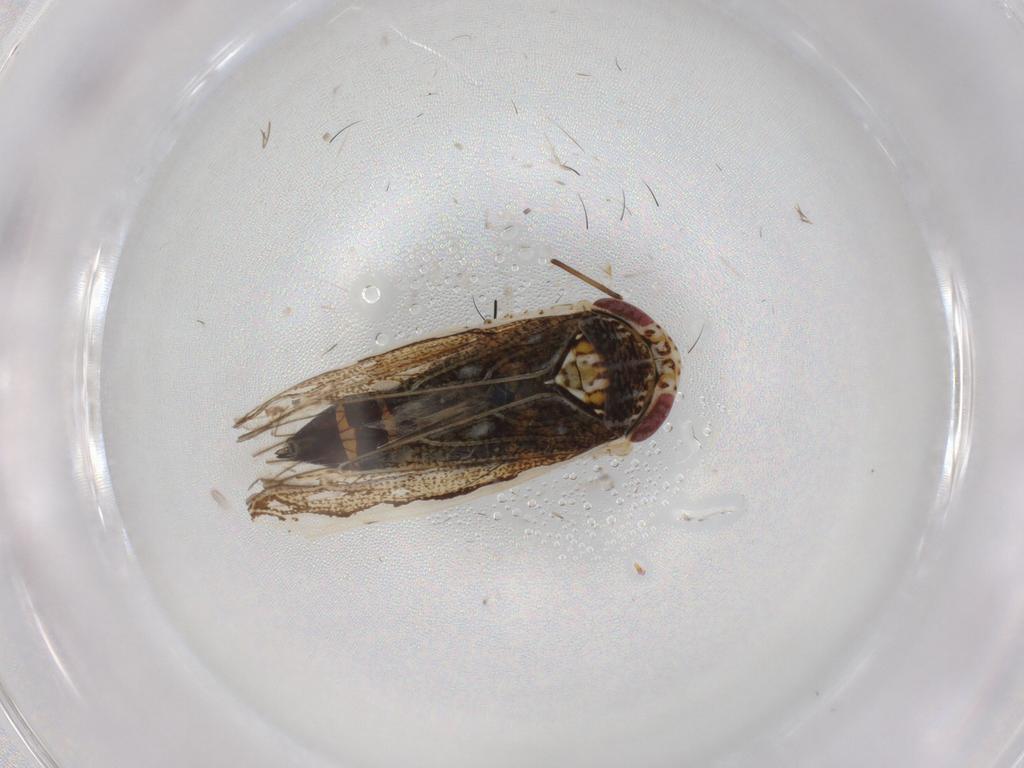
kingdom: Animalia
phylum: Arthropoda
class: Insecta
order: Hemiptera
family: Cicadellidae
